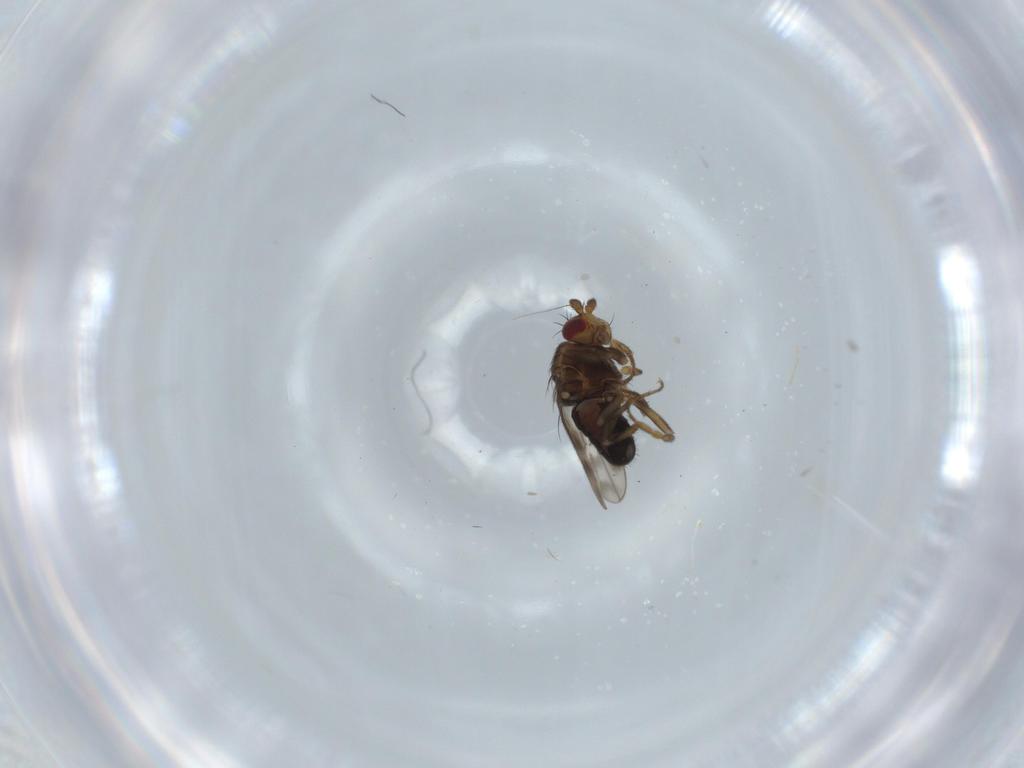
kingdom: Animalia
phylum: Arthropoda
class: Insecta
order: Diptera
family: Sphaeroceridae
